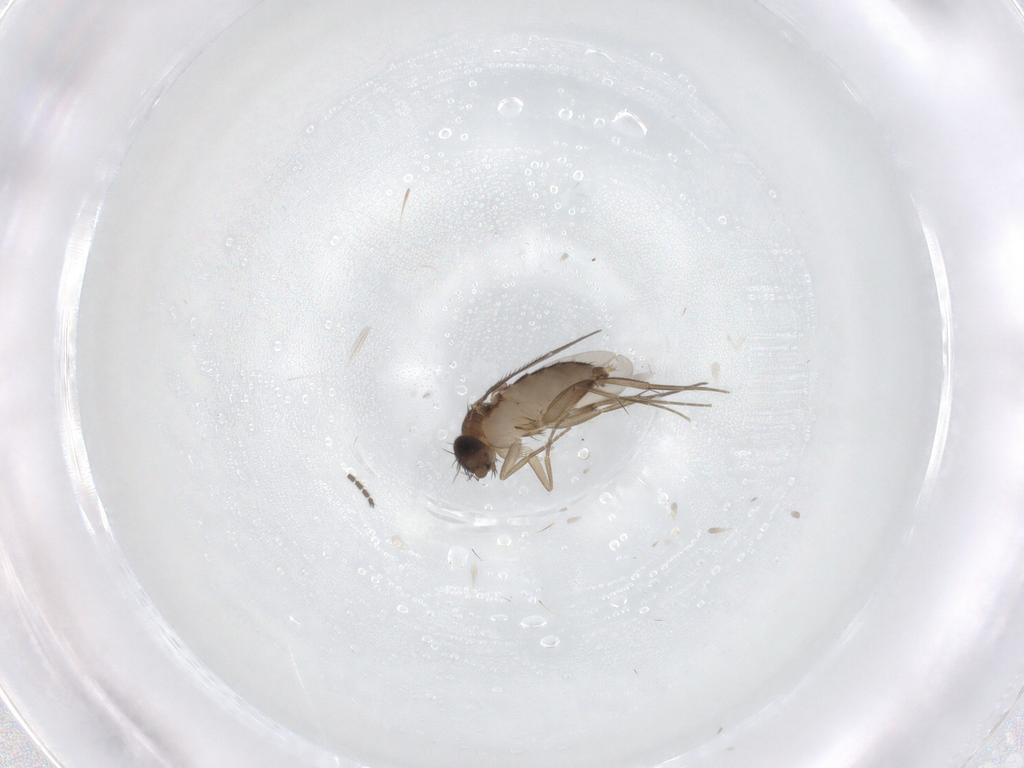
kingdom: Animalia
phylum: Arthropoda
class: Insecta
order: Diptera
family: Sciaridae
